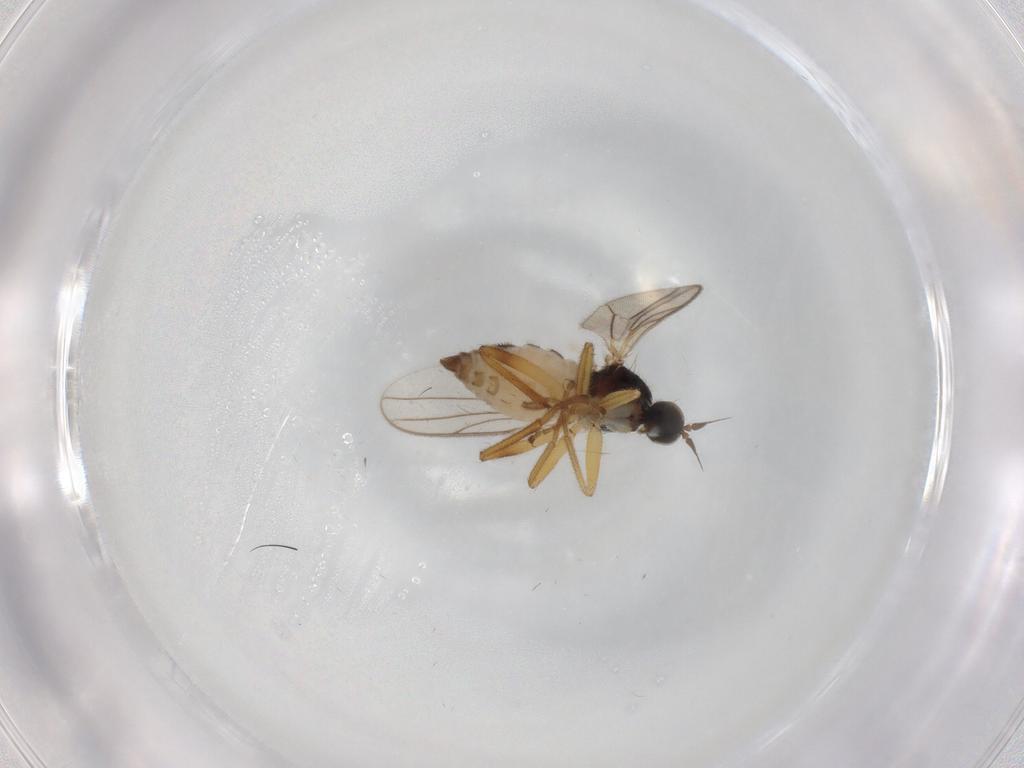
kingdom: Animalia
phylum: Arthropoda
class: Insecta
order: Diptera
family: Hybotidae
